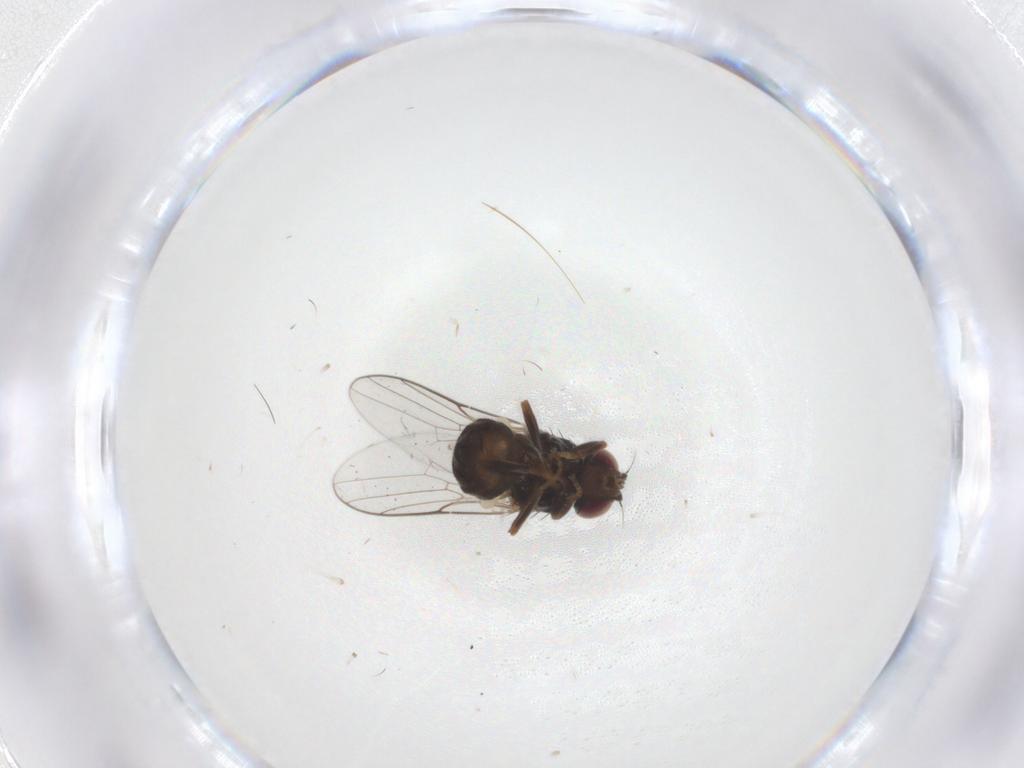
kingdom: Animalia
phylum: Arthropoda
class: Insecta
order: Diptera
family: Chloropidae
